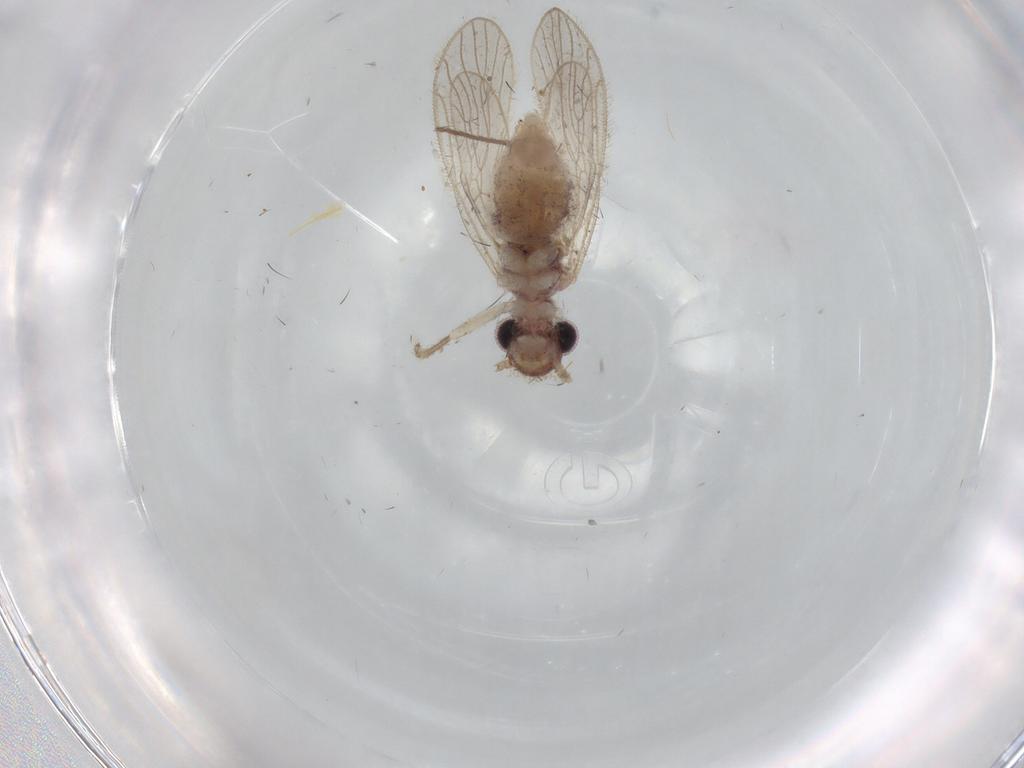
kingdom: Animalia
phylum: Arthropoda
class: Insecta
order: Psocodea
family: Cladiopsocidae
